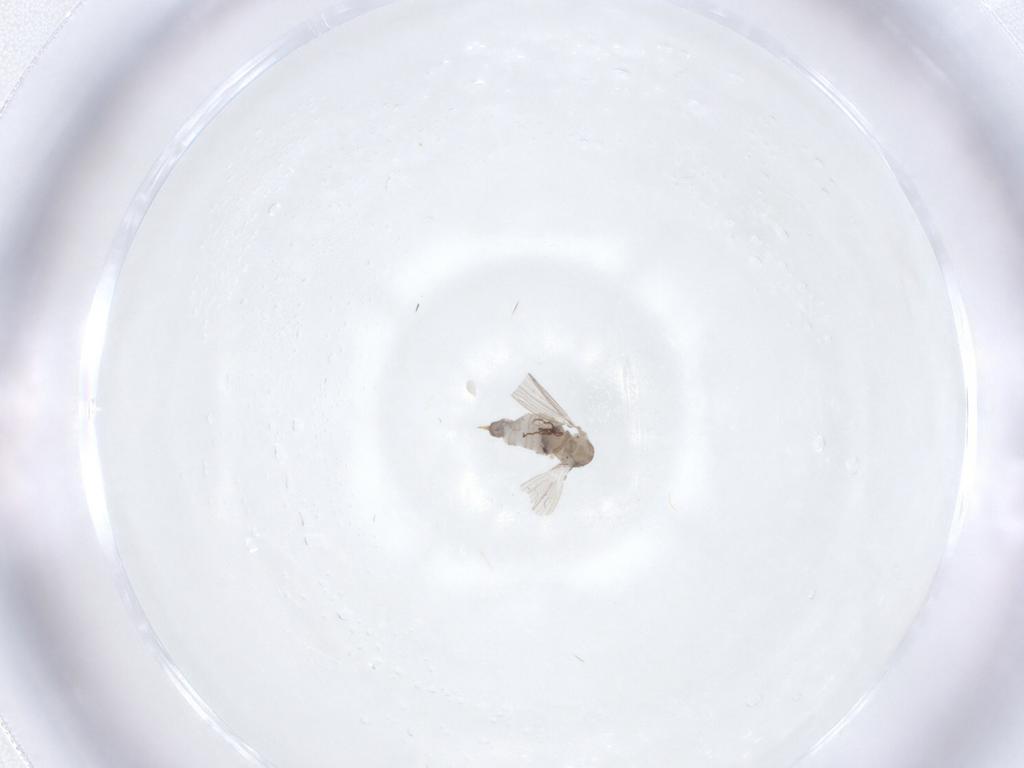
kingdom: Animalia
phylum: Arthropoda
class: Insecta
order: Diptera
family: Psychodidae
